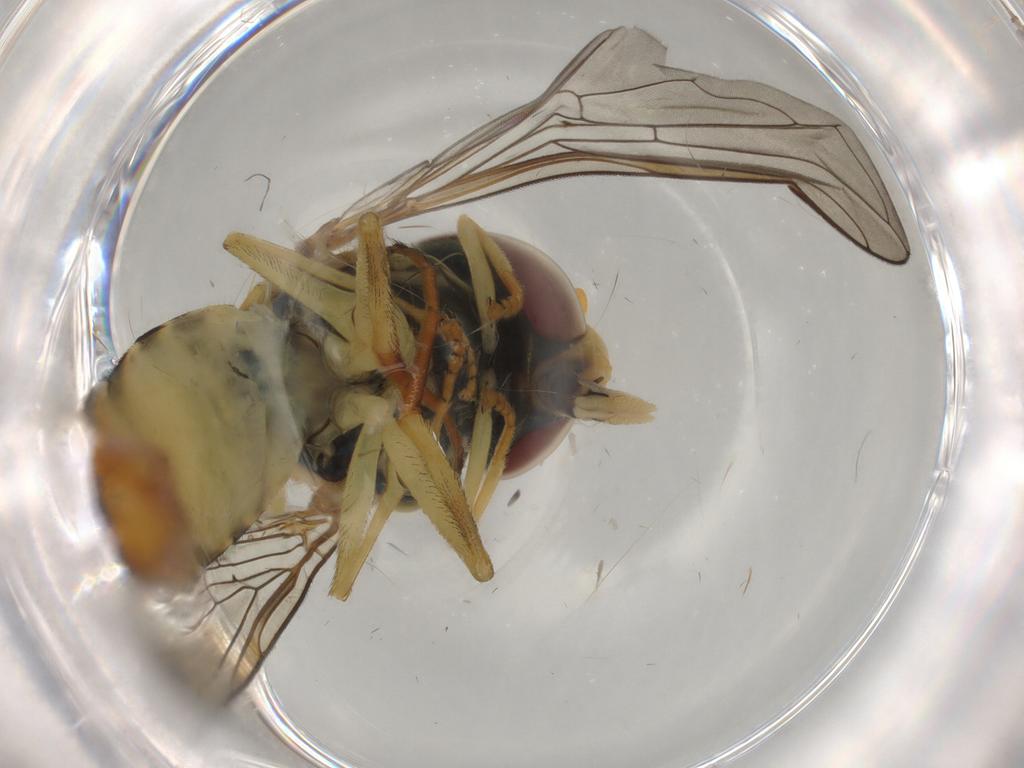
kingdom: Animalia
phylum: Arthropoda
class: Insecta
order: Diptera
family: Syrphidae
